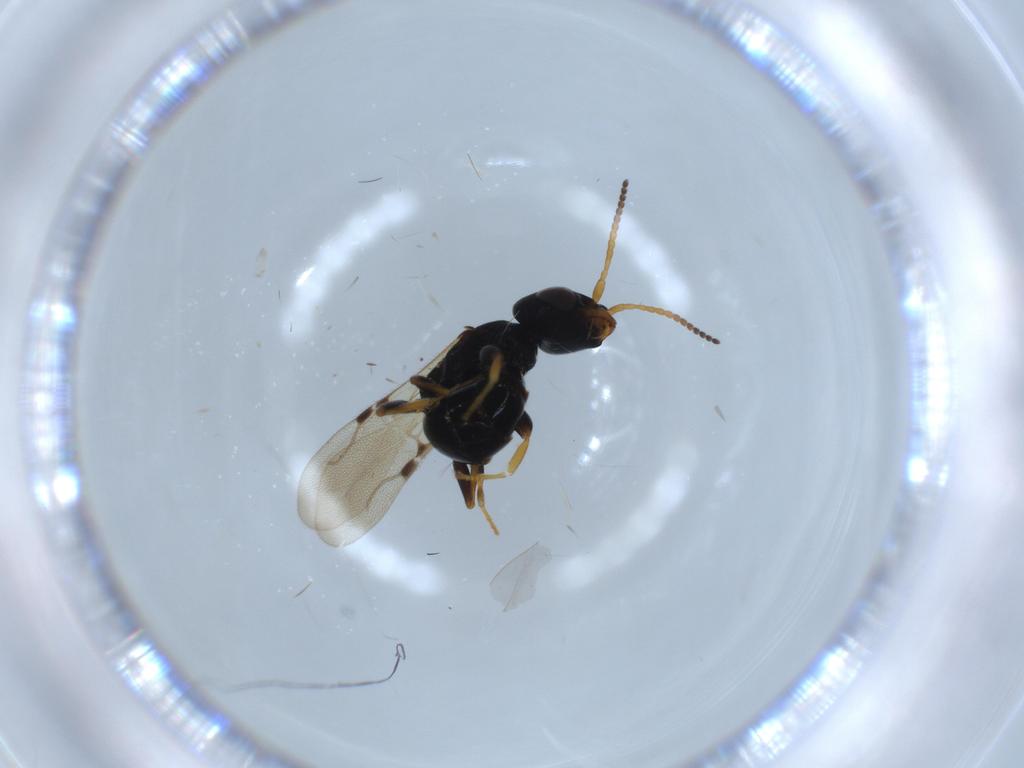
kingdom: Animalia
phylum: Arthropoda
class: Insecta
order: Hymenoptera
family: Bethylidae
